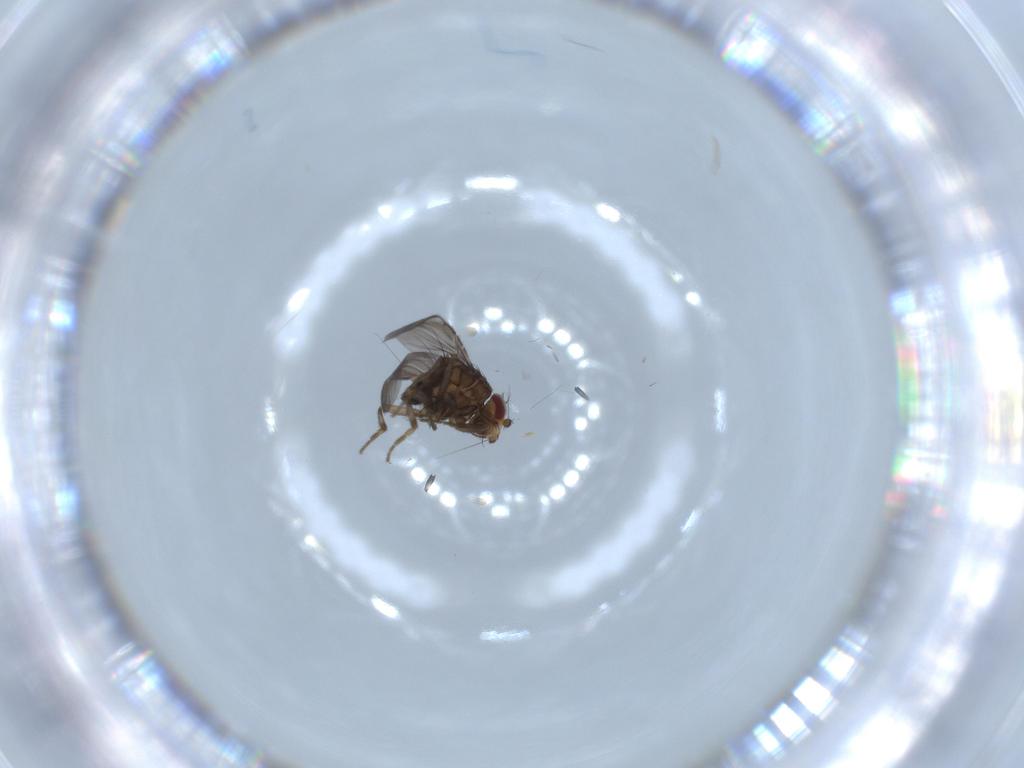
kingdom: Animalia
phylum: Arthropoda
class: Insecta
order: Diptera
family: Sphaeroceridae
